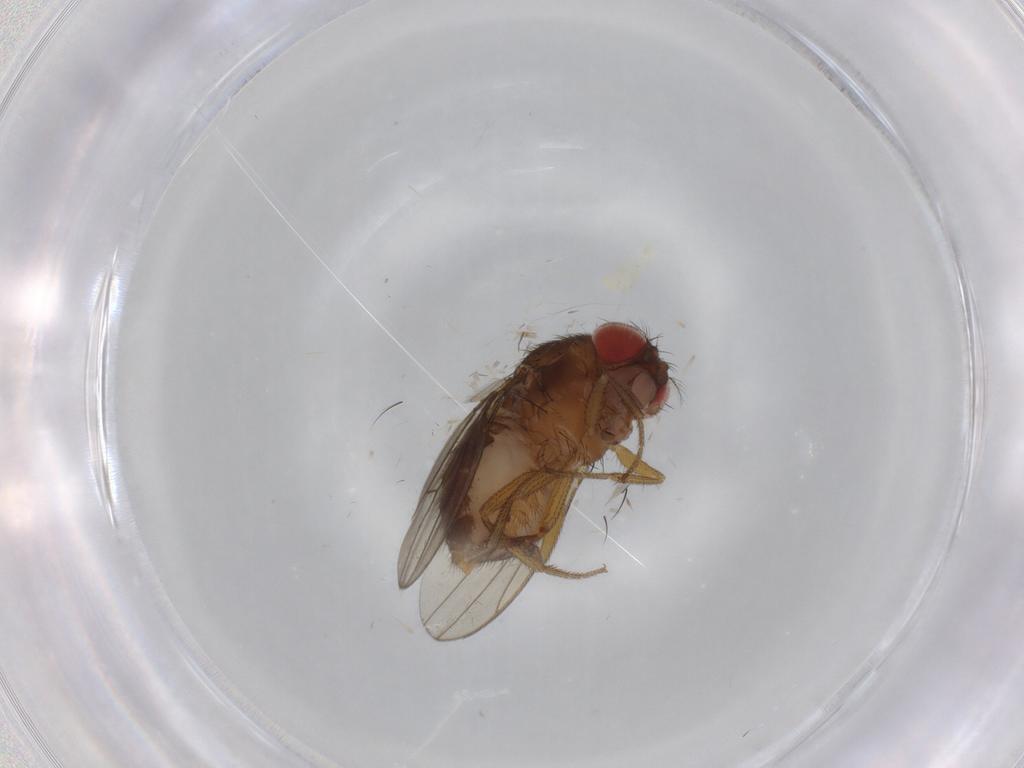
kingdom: Animalia
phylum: Arthropoda
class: Insecta
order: Diptera
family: Drosophilidae
